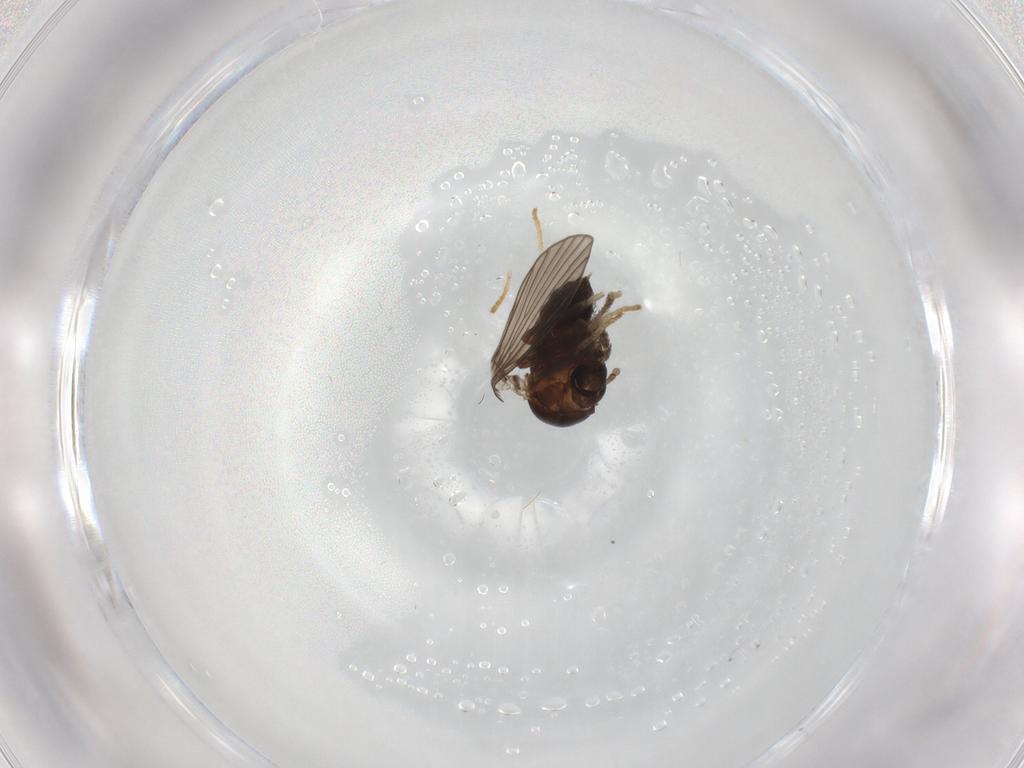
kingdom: Animalia
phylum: Arthropoda
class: Insecta
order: Diptera
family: Psychodidae
